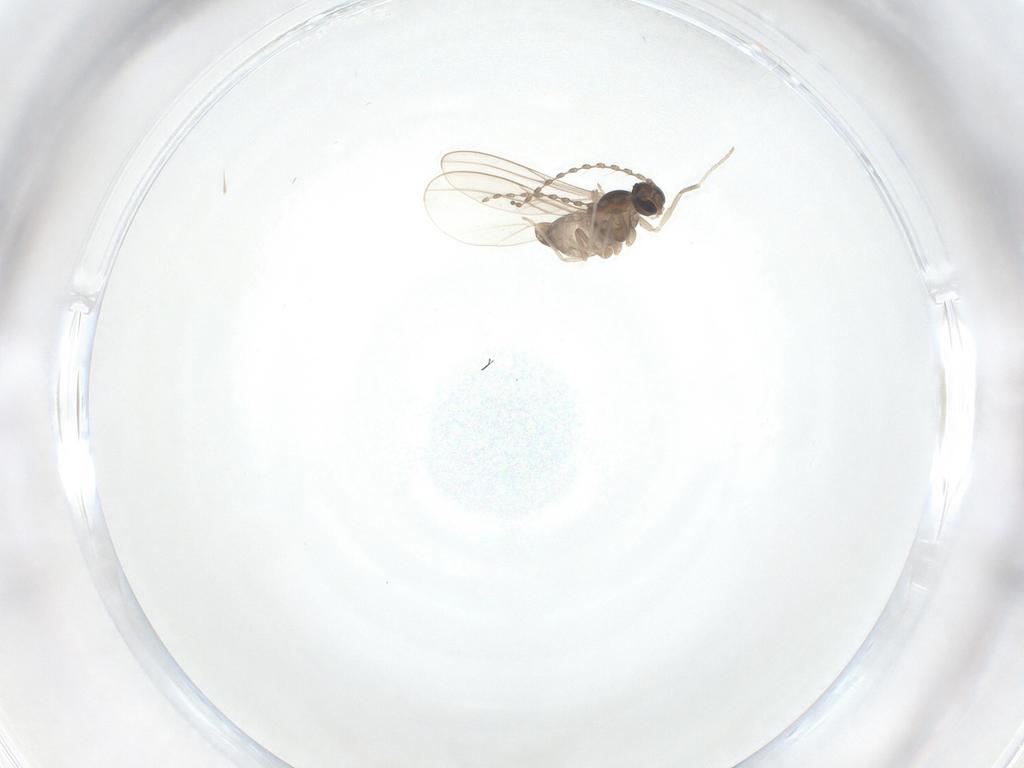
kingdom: Animalia
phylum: Arthropoda
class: Insecta
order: Diptera
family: Cecidomyiidae
